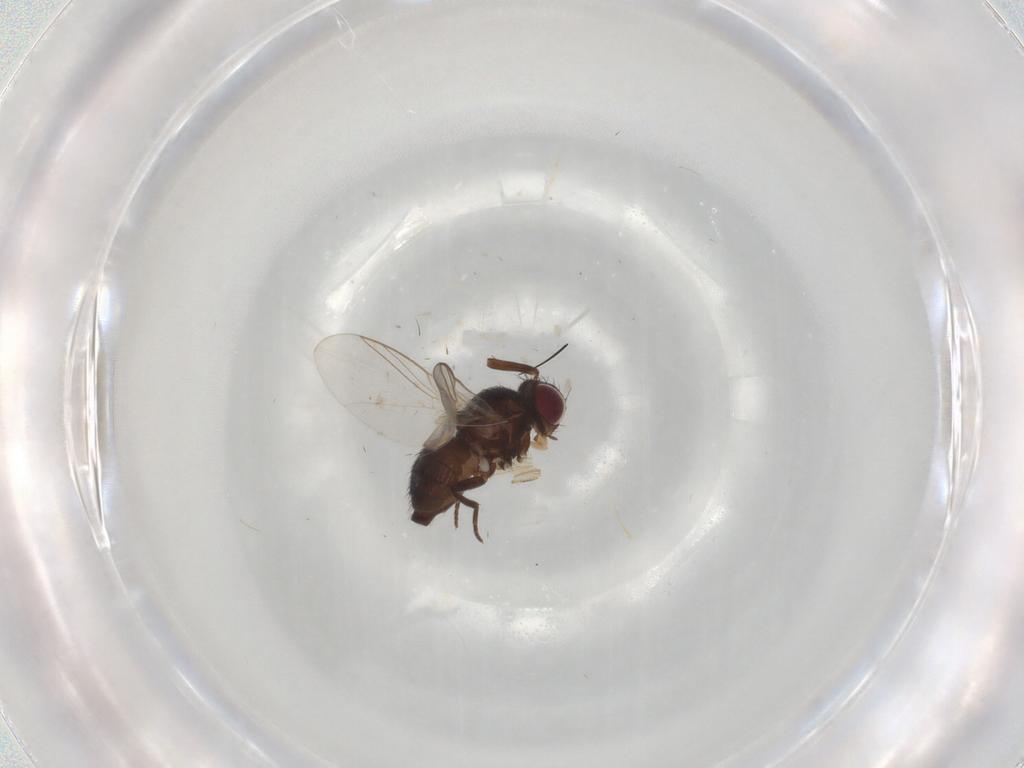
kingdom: Animalia
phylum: Arthropoda
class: Insecta
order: Diptera
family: Agromyzidae
